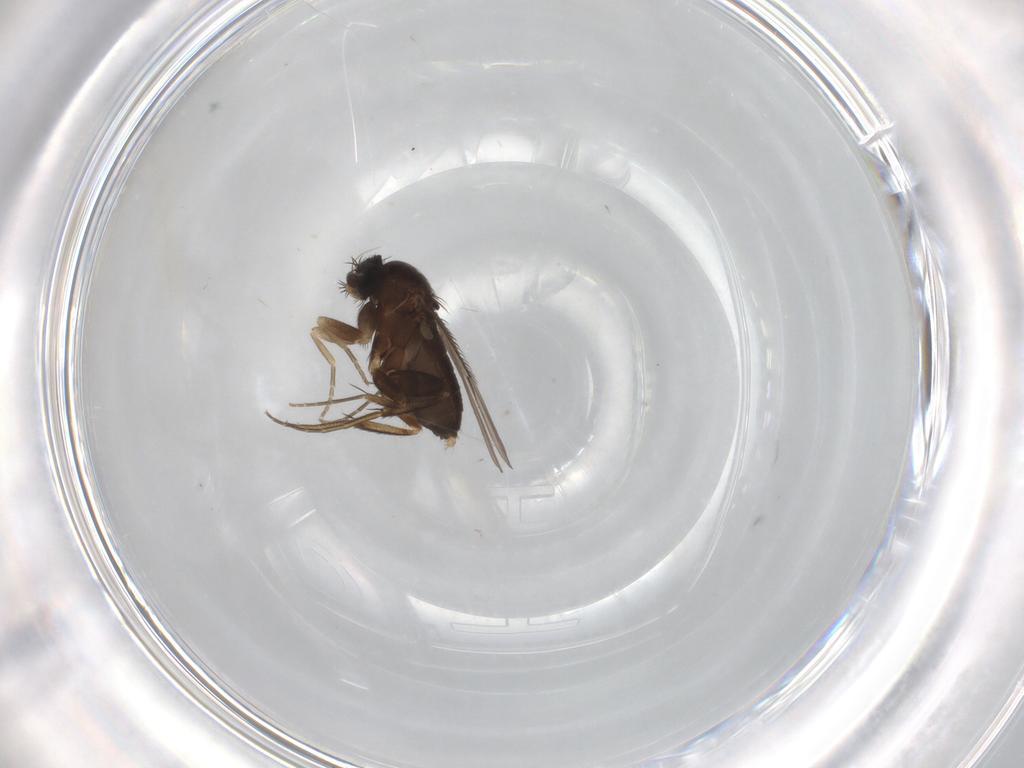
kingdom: Animalia
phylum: Arthropoda
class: Insecta
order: Diptera
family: Phoridae
